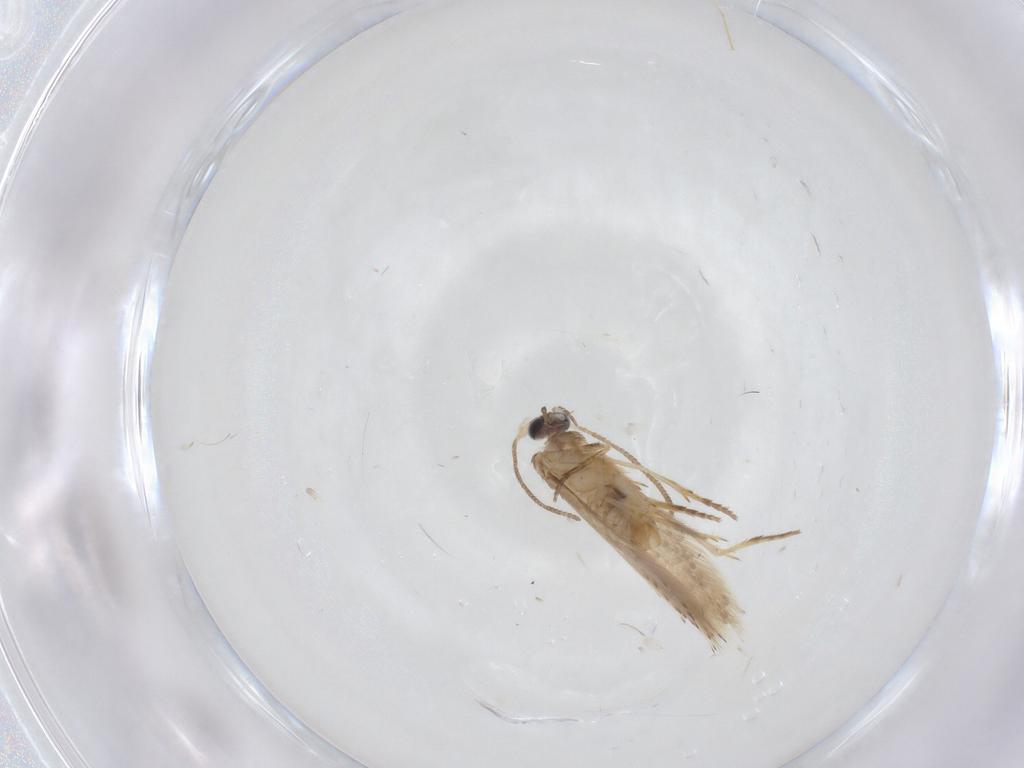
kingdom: Animalia
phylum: Arthropoda
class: Insecta
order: Lepidoptera
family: Nepticulidae
